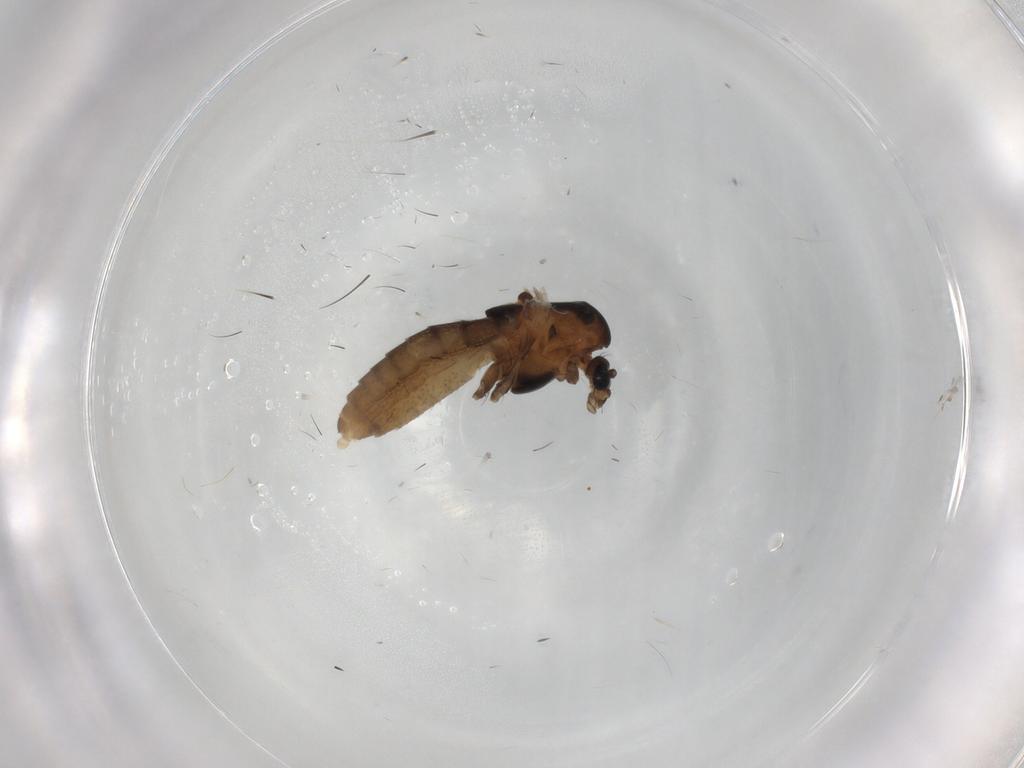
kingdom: Animalia
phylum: Arthropoda
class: Insecta
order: Diptera
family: Chironomidae
